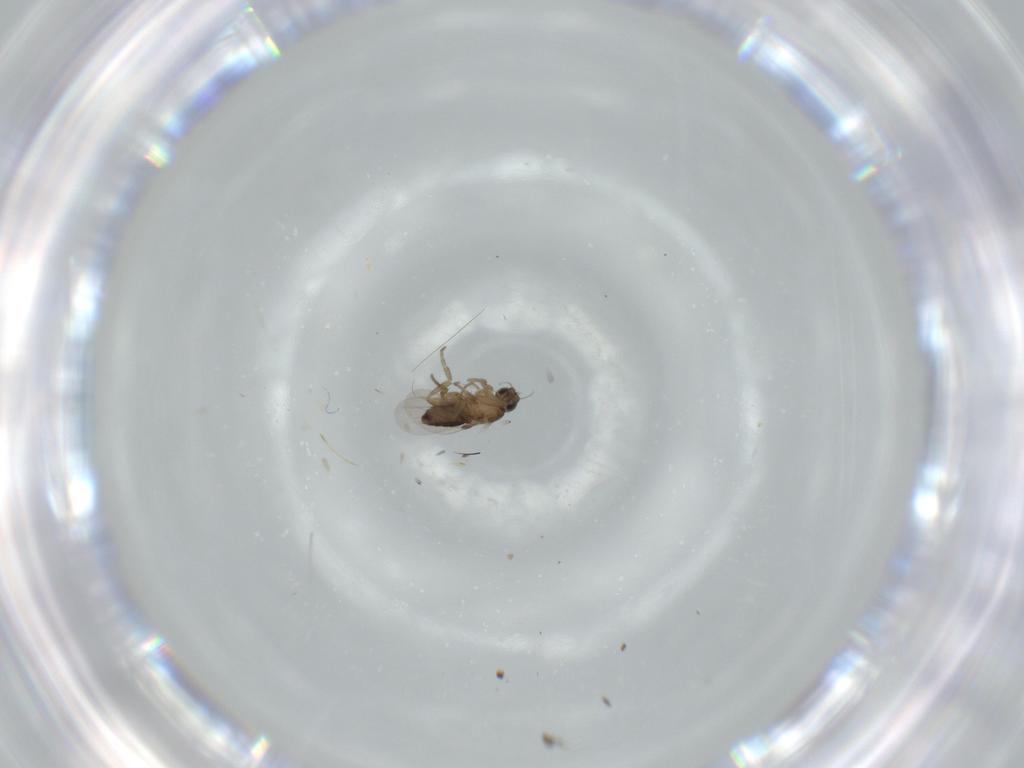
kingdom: Animalia
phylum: Arthropoda
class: Insecta
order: Diptera
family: Phoridae
